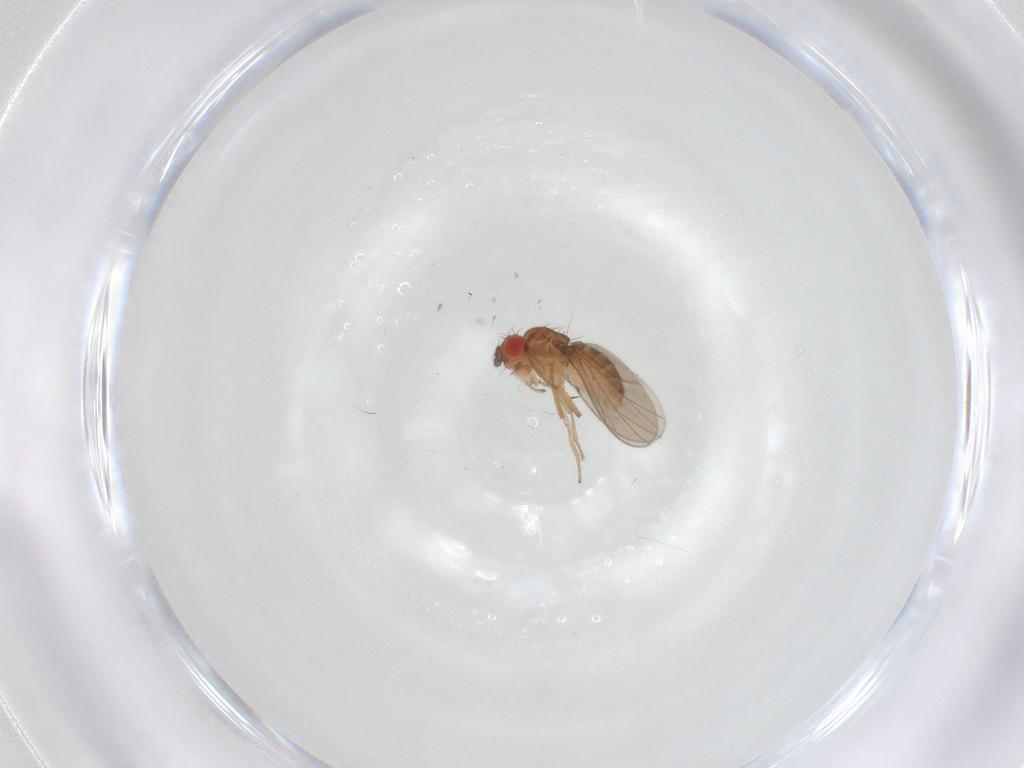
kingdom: Animalia
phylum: Arthropoda
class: Insecta
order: Diptera
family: Drosophilidae
